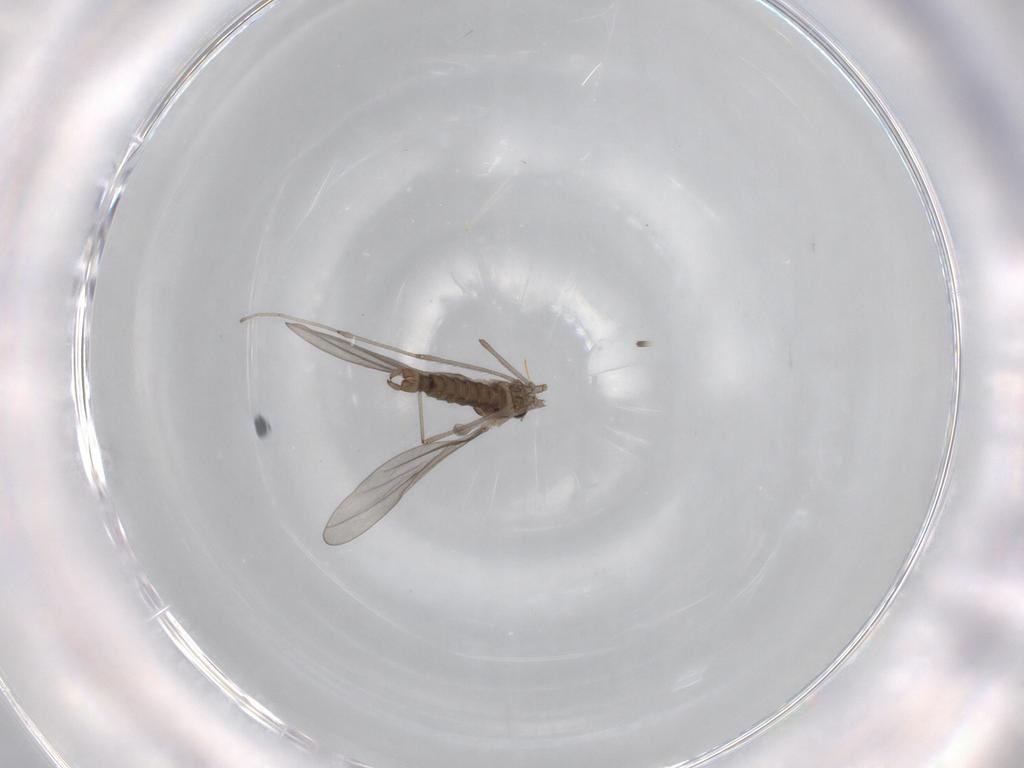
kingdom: Animalia
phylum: Arthropoda
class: Insecta
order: Diptera
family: Cecidomyiidae
